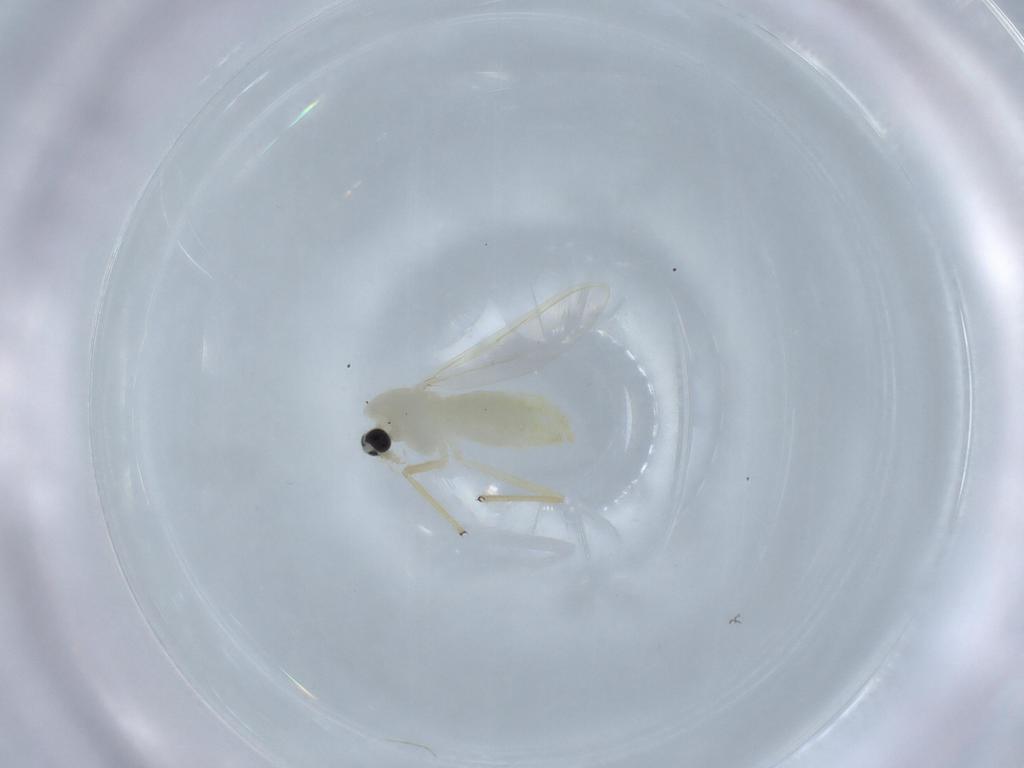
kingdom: Animalia
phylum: Arthropoda
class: Insecta
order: Diptera
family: Chironomidae
